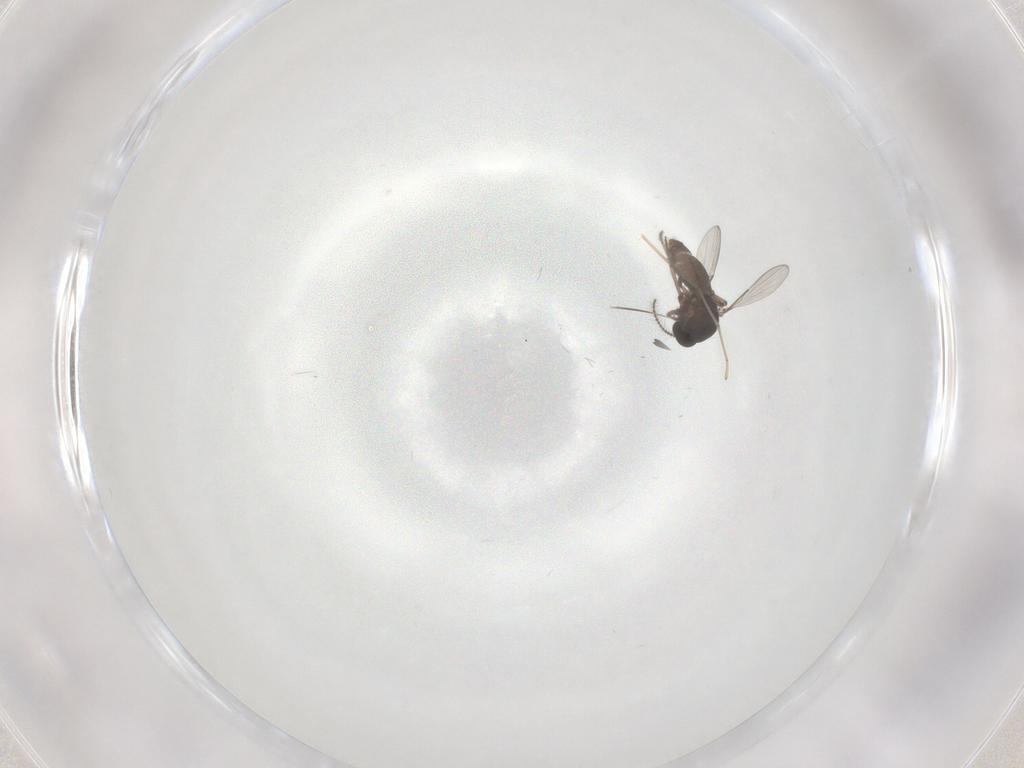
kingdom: Animalia
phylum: Arthropoda
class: Insecta
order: Diptera
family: Ceratopogonidae
